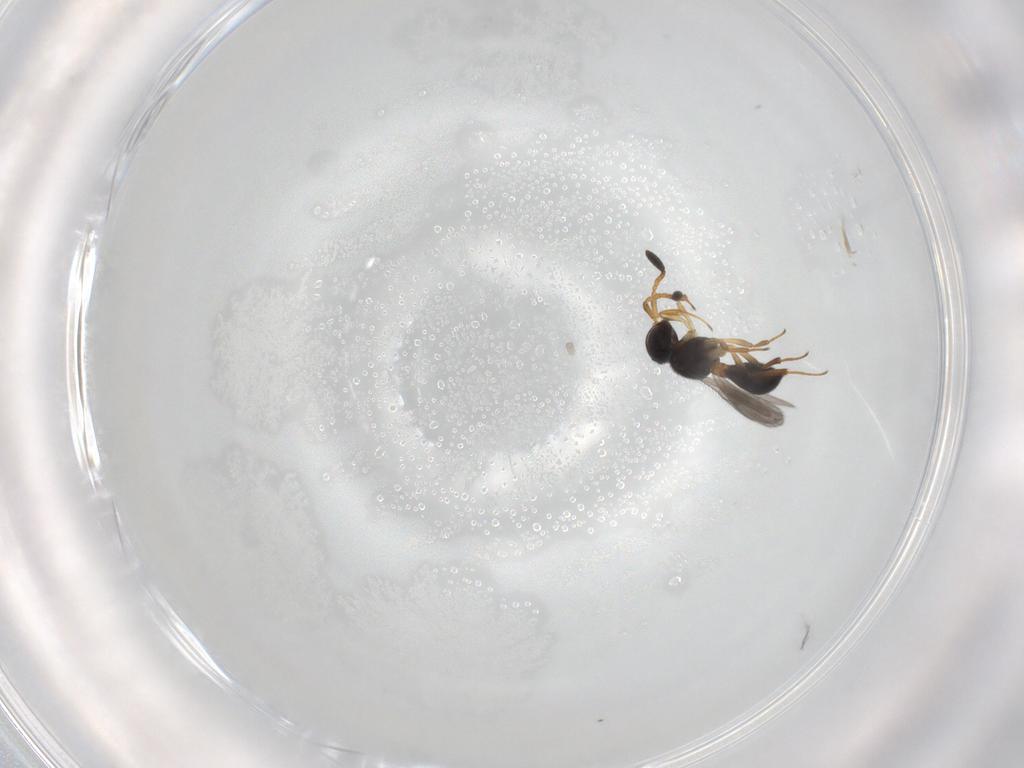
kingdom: Animalia
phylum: Arthropoda
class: Insecta
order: Hymenoptera
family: Scelionidae
